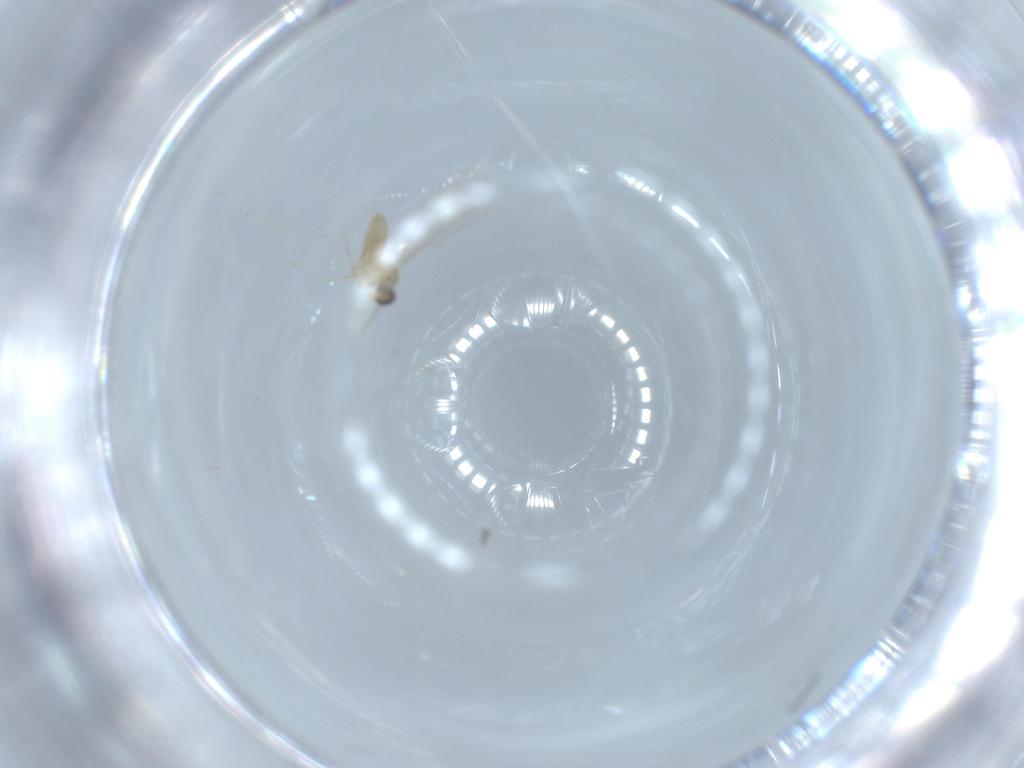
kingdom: Animalia
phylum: Arthropoda
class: Insecta
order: Diptera
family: Cecidomyiidae
